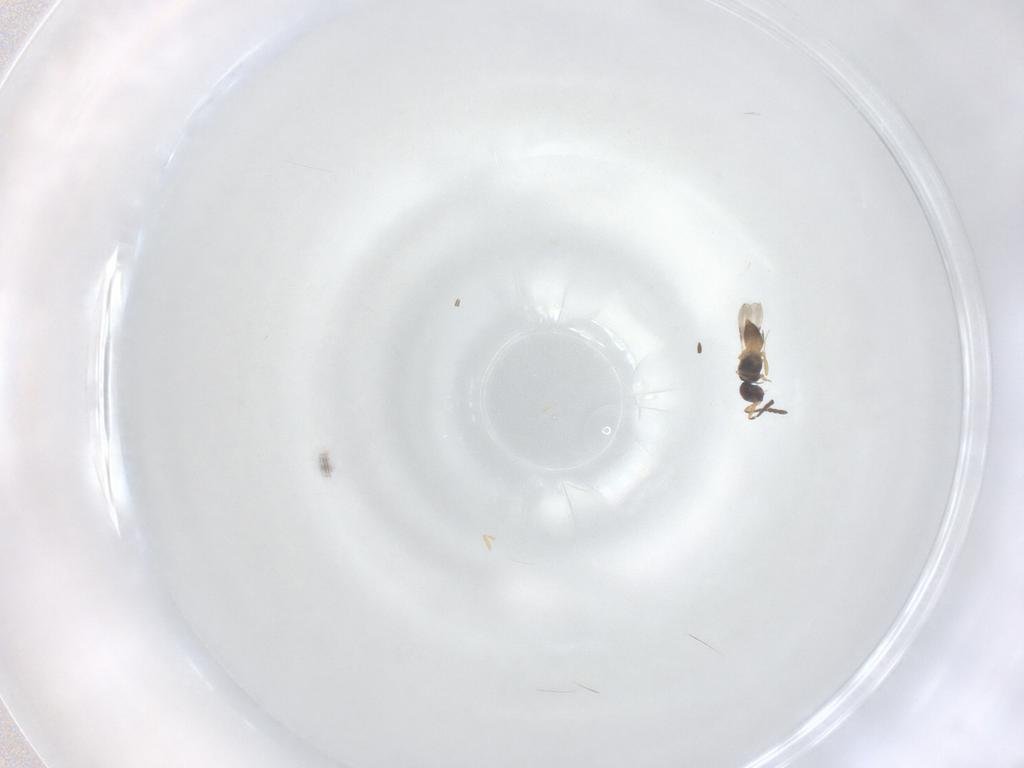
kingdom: Animalia
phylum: Arthropoda
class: Insecta
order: Hymenoptera
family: Ceraphronidae
